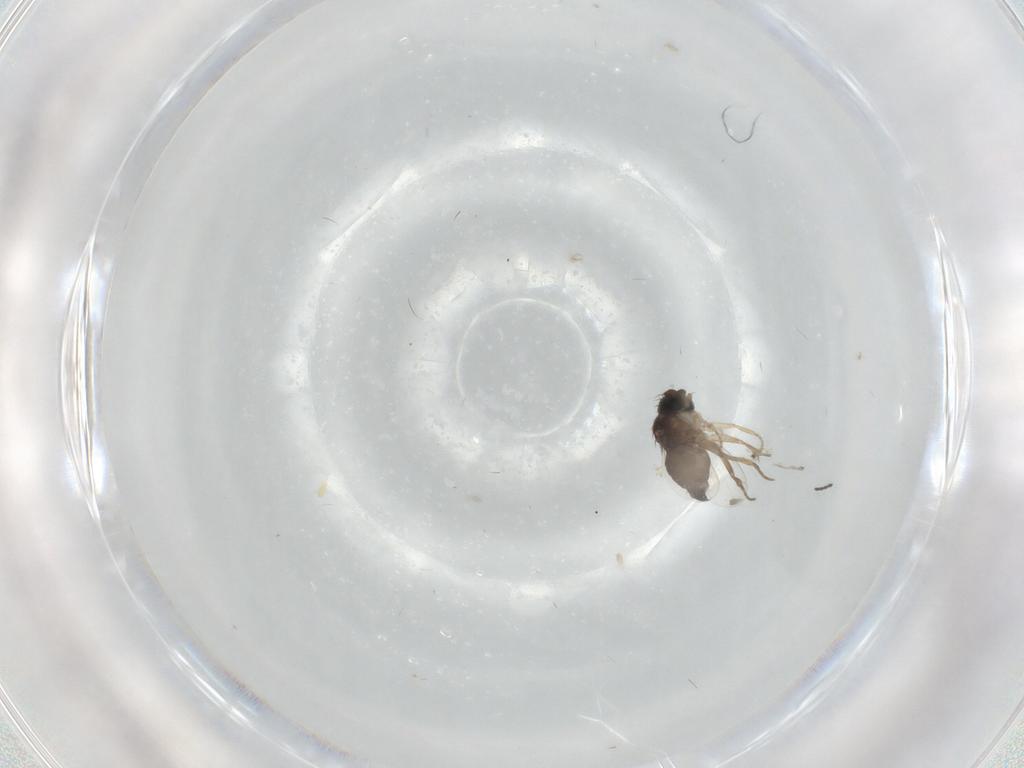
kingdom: Animalia
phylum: Arthropoda
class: Insecta
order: Diptera
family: Phoridae
